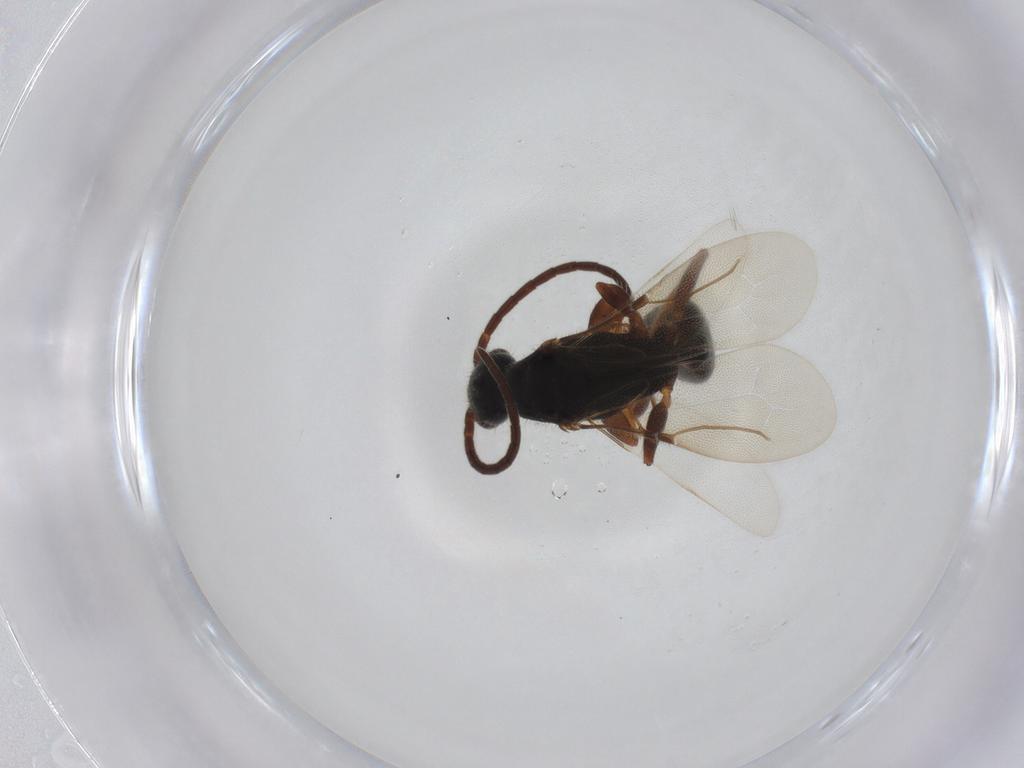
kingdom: Animalia
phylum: Arthropoda
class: Insecta
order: Hymenoptera
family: Bethylidae
